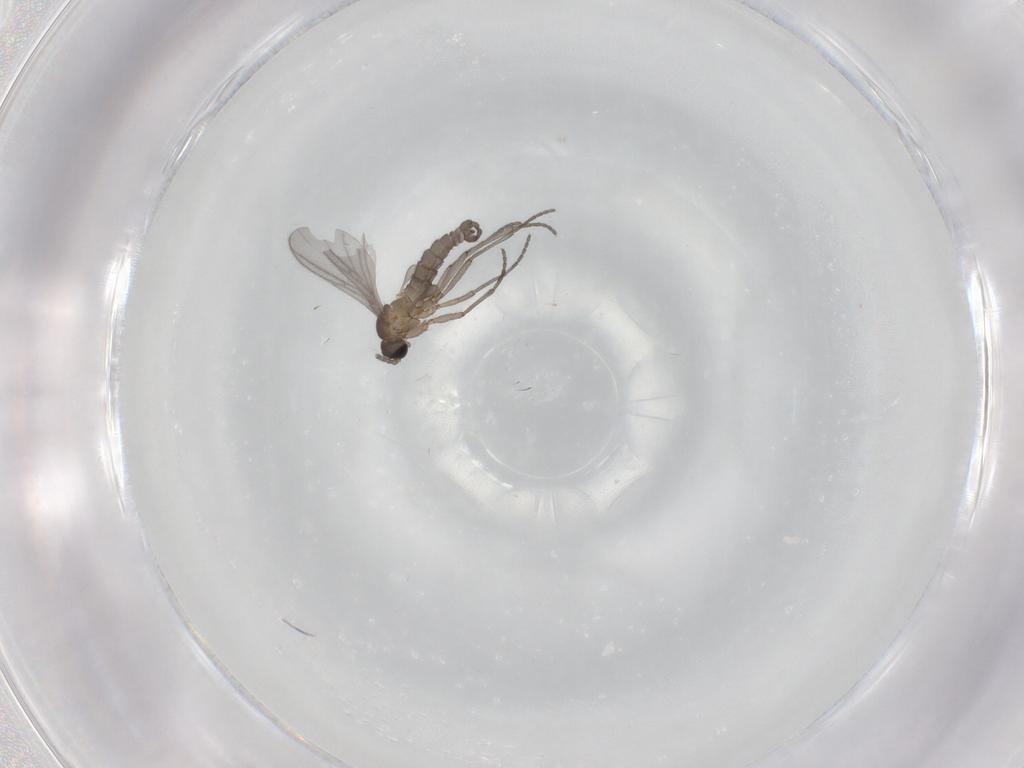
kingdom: Animalia
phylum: Arthropoda
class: Insecta
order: Diptera
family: Sciaridae
